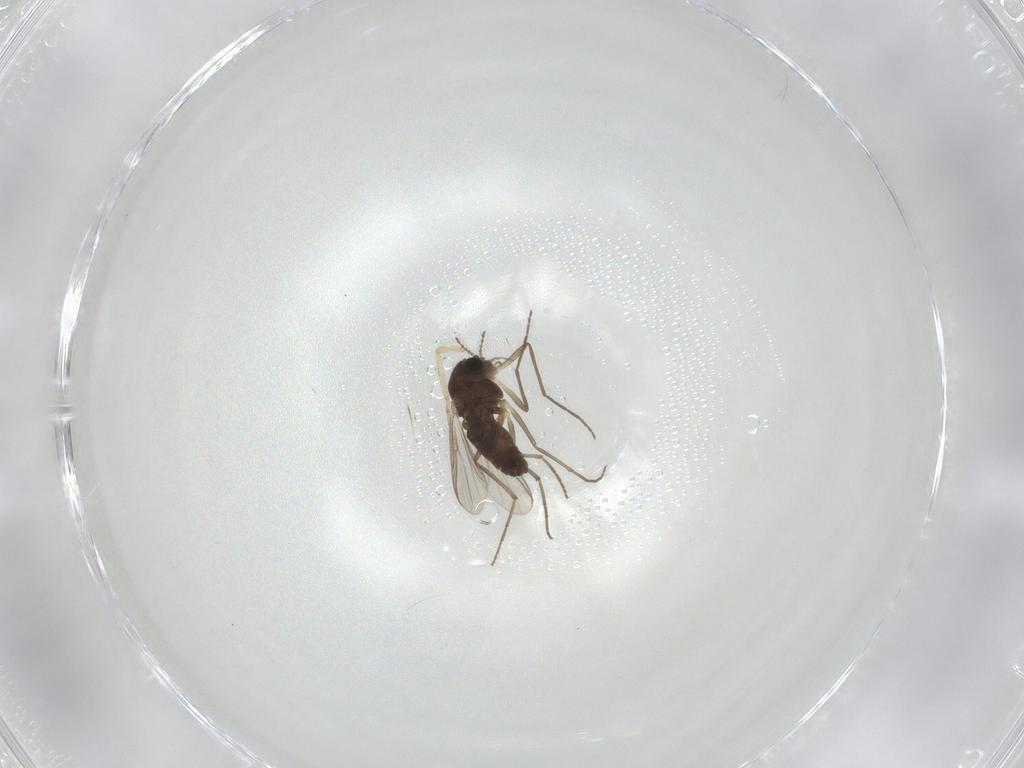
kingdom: Animalia
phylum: Arthropoda
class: Insecta
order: Diptera
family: Chironomidae
